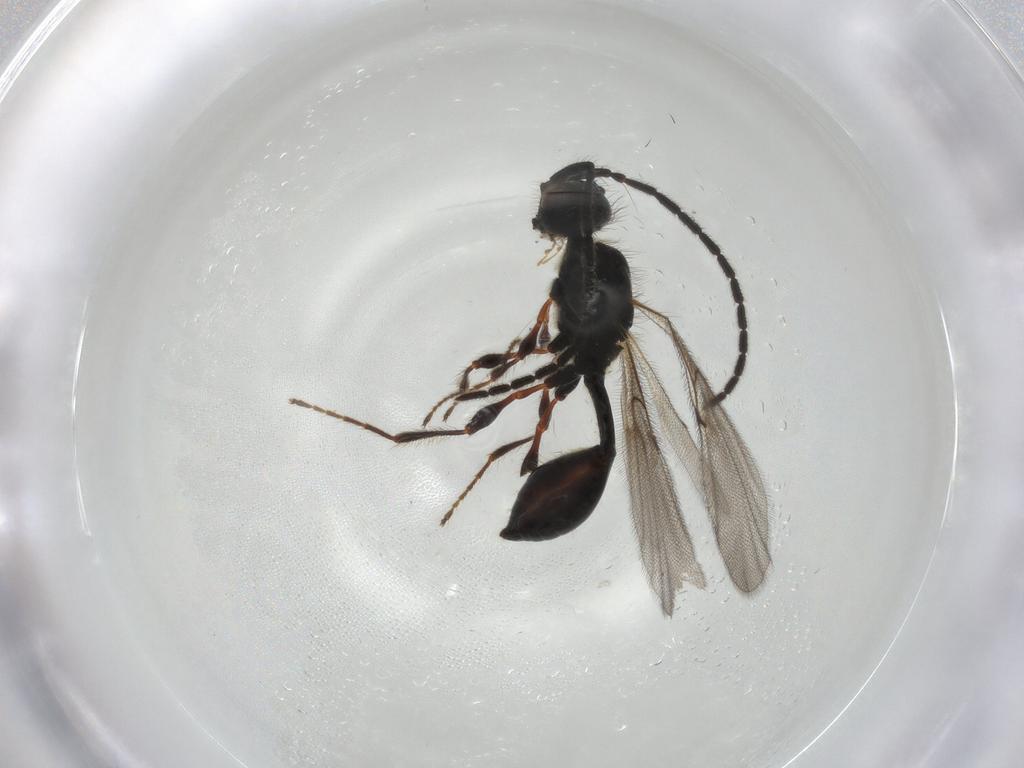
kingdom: Animalia
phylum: Arthropoda
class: Insecta
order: Hymenoptera
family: Diapriidae
